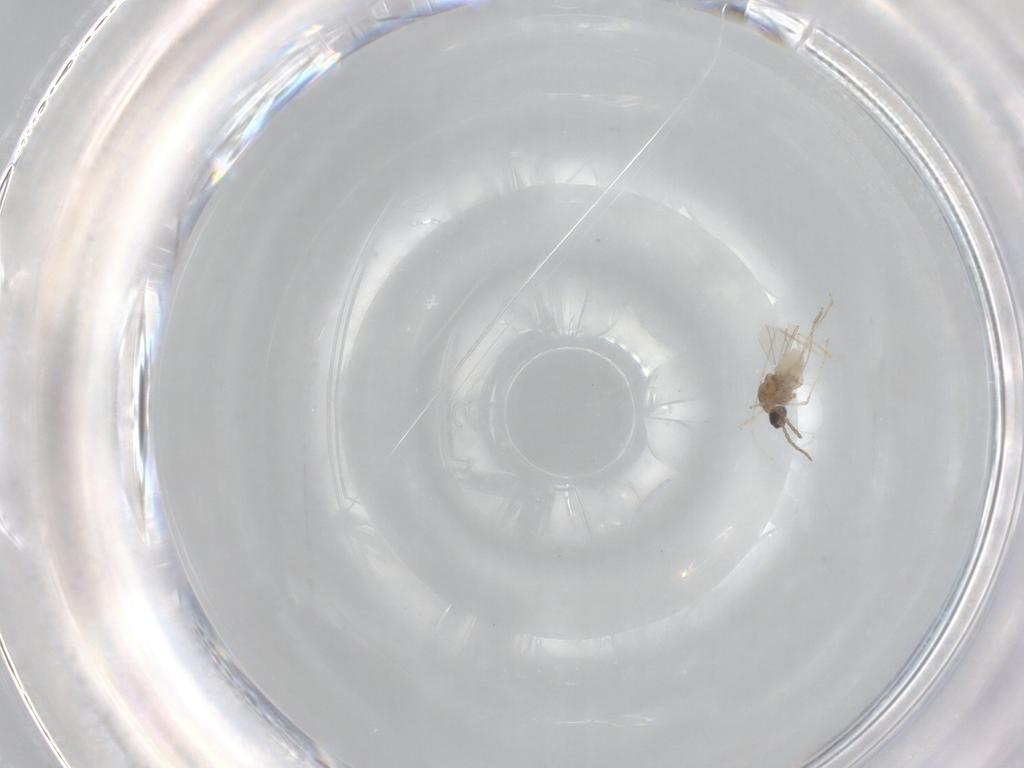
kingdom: Animalia
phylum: Arthropoda
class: Insecta
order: Diptera
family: Cecidomyiidae
